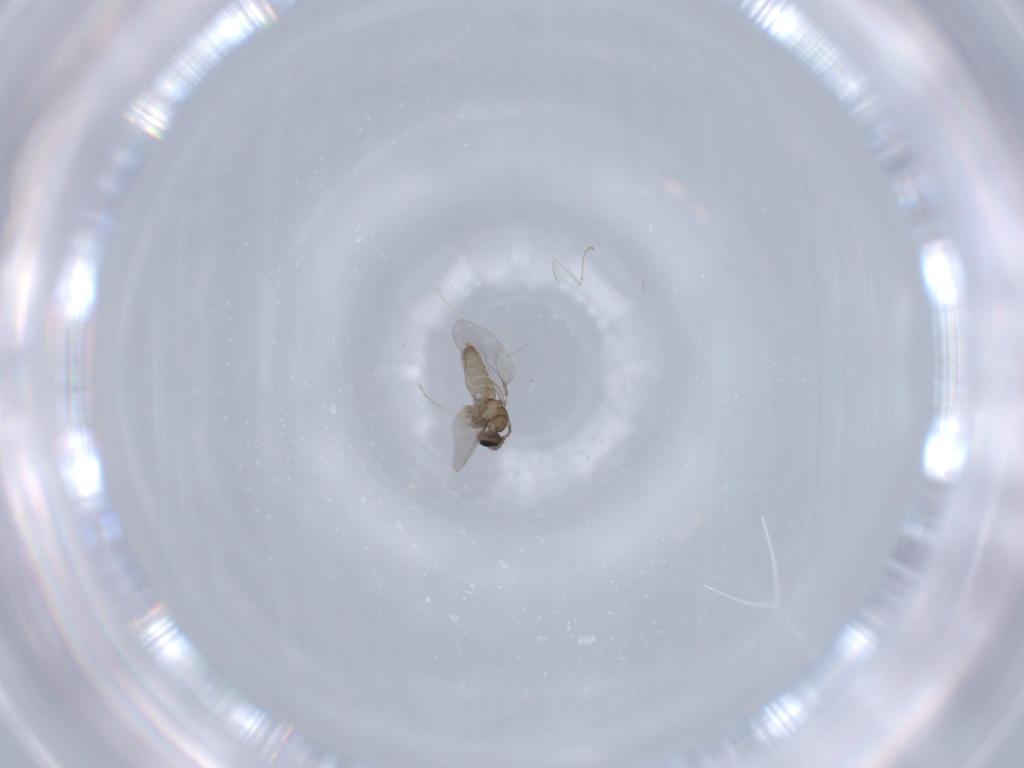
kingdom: Animalia
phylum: Arthropoda
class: Insecta
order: Diptera
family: Cecidomyiidae
